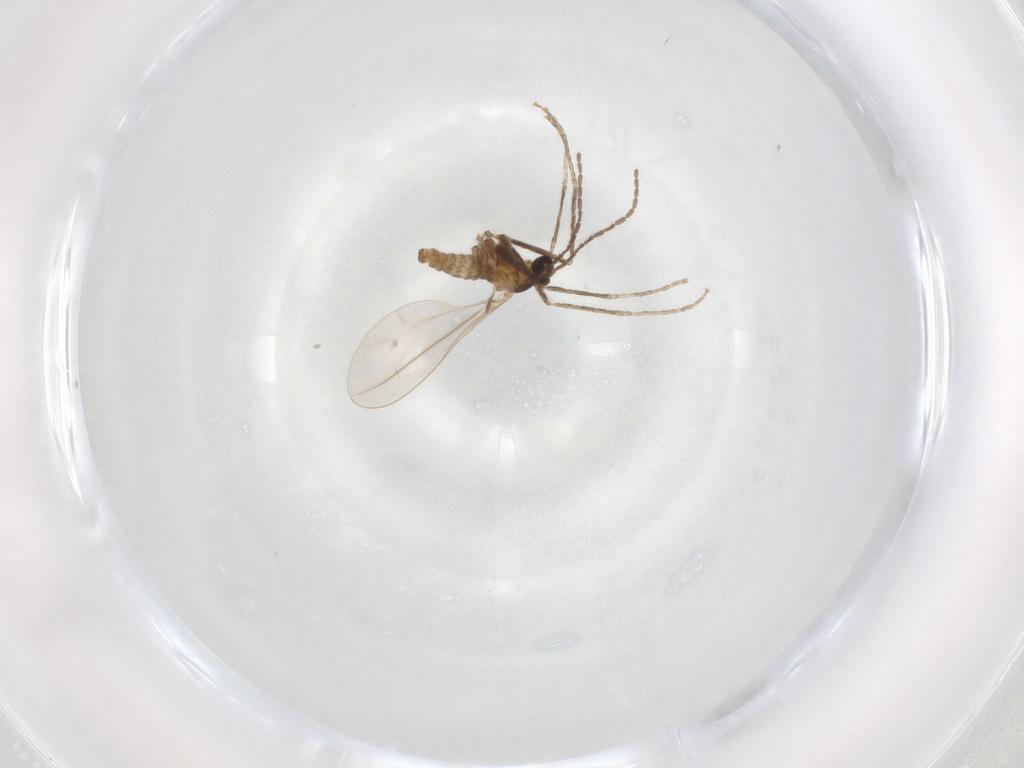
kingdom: Animalia
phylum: Arthropoda
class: Insecta
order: Diptera
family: Cecidomyiidae
